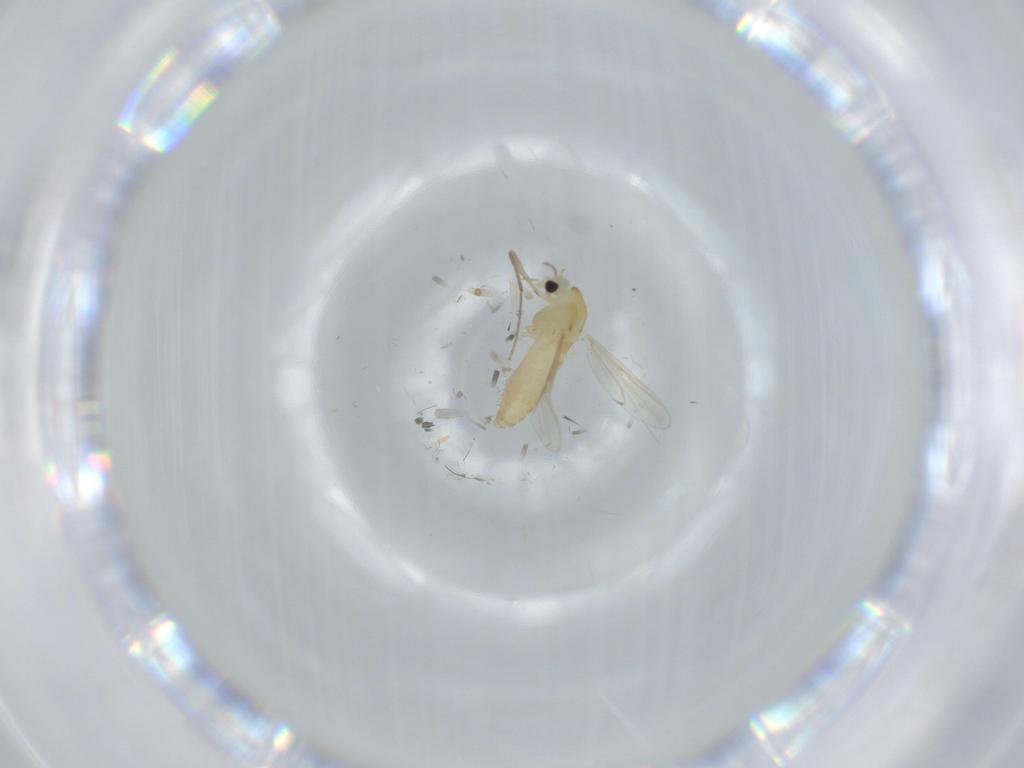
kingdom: Animalia
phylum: Arthropoda
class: Insecta
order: Diptera
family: Chironomidae
